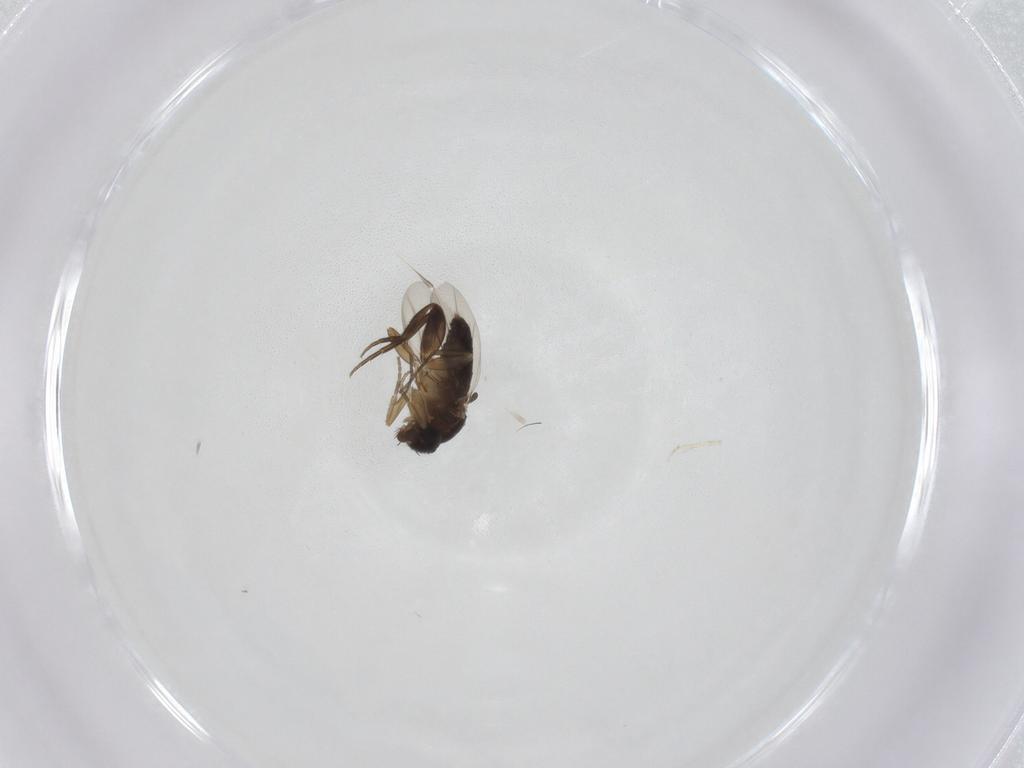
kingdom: Animalia
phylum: Arthropoda
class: Insecta
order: Diptera
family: Phoridae
